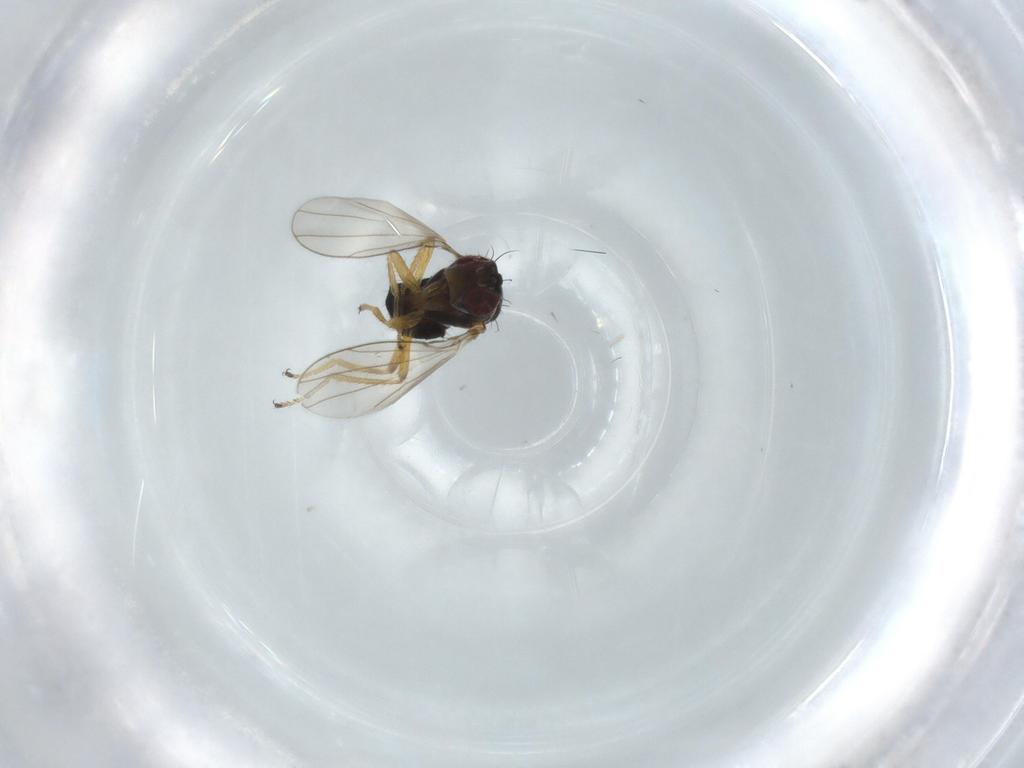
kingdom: Animalia
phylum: Arthropoda
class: Insecta
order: Diptera
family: Ephydridae
